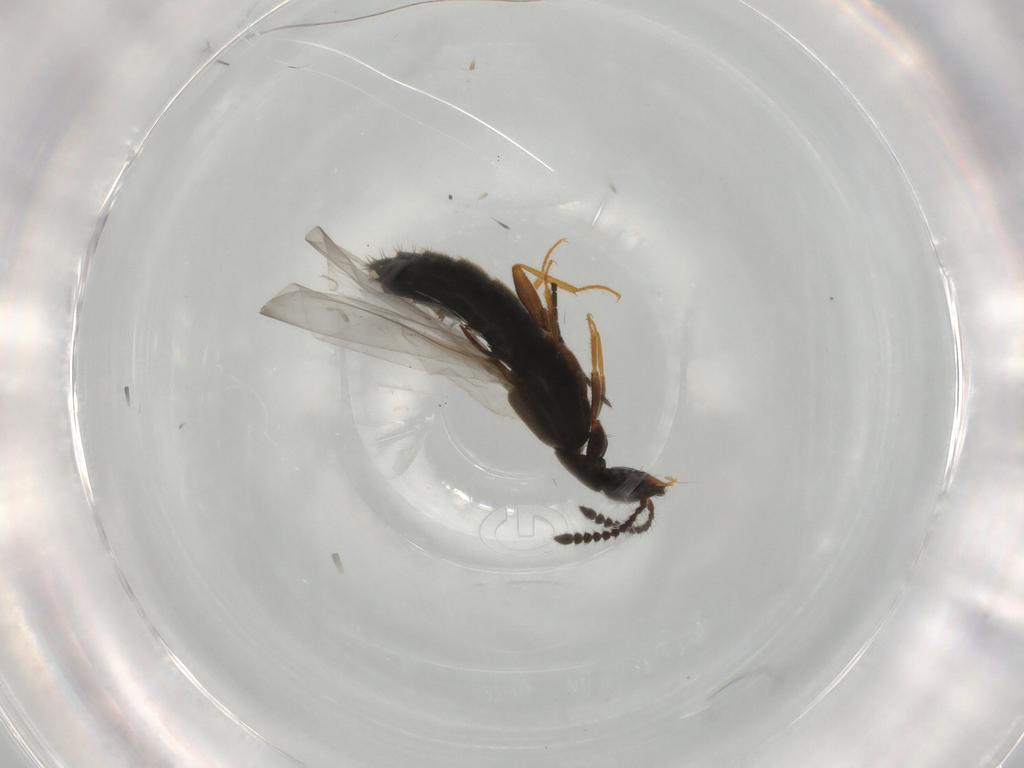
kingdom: Animalia
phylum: Arthropoda
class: Insecta
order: Coleoptera
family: Staphylinidae
